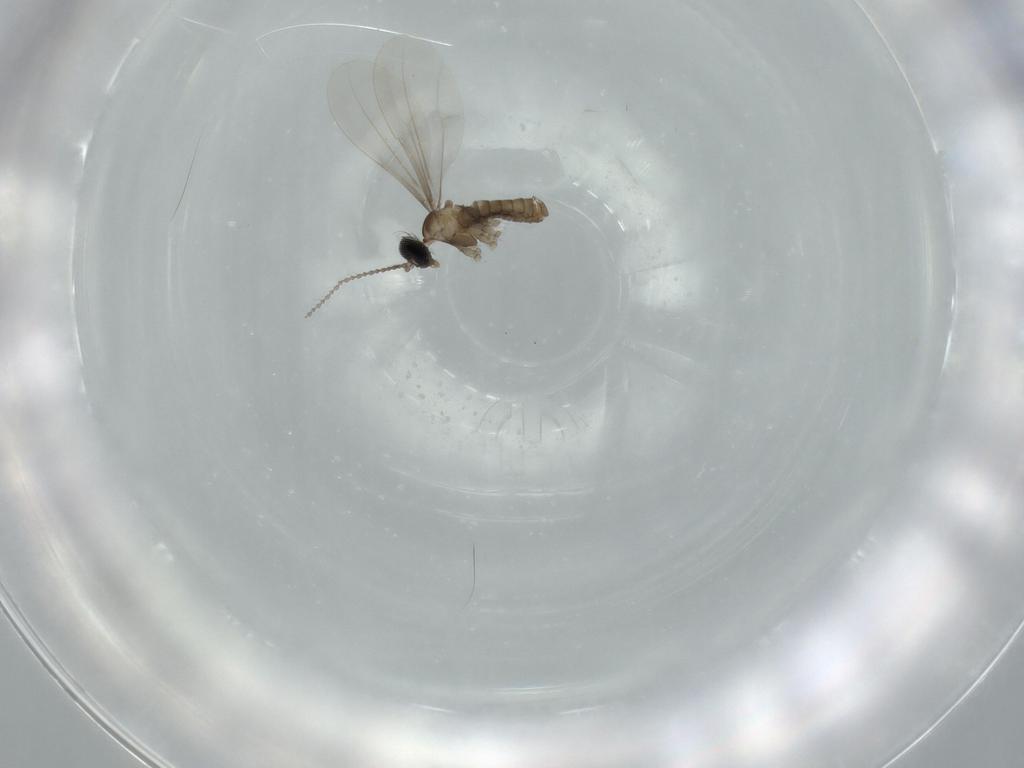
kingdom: Animalia
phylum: Arthropoda
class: Insecta
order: Diptera
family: Cecidomyiidae
